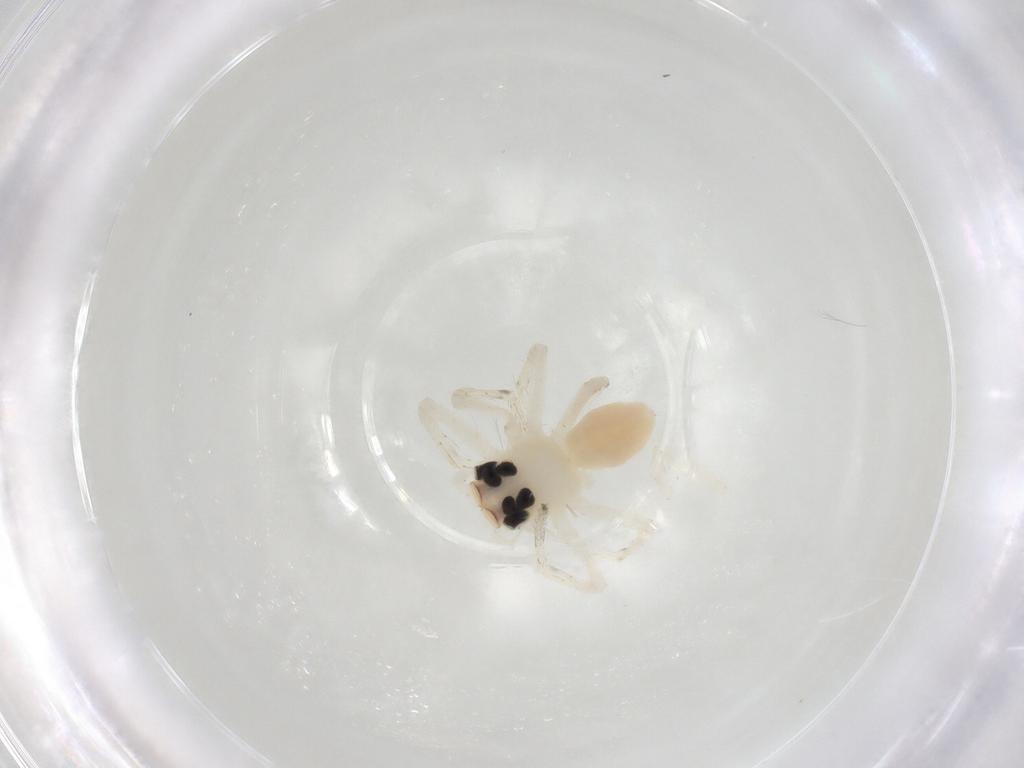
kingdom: Animalia
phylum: Arthropoda
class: Arachnida
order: Araneae
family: Salticidae
